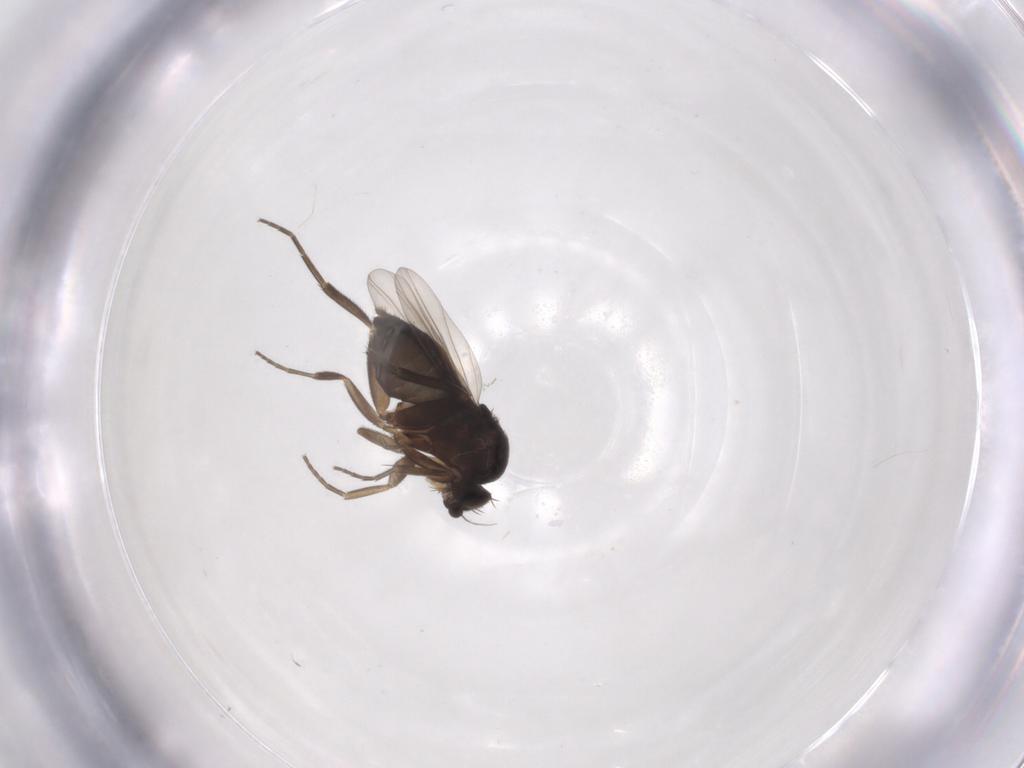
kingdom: Animalia
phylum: Arthropoda
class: Insecta
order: Diptera
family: Phoridae
